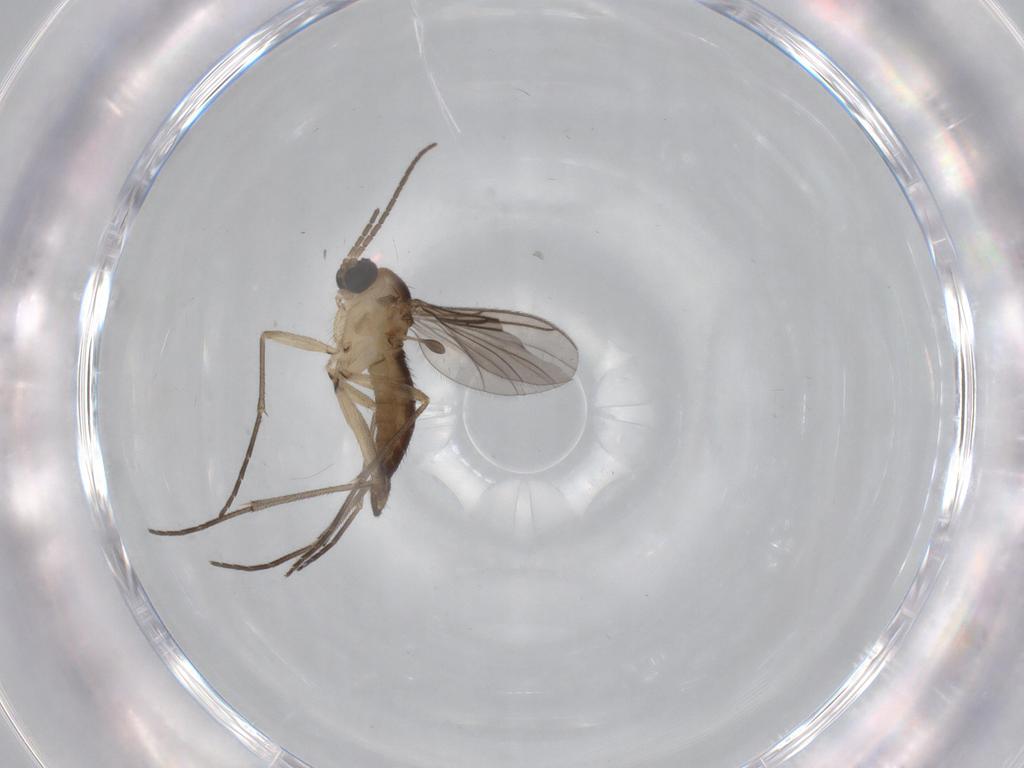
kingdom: Animalia
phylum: Arthropoda
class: Insecta
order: Diptera
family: Sciaridae
